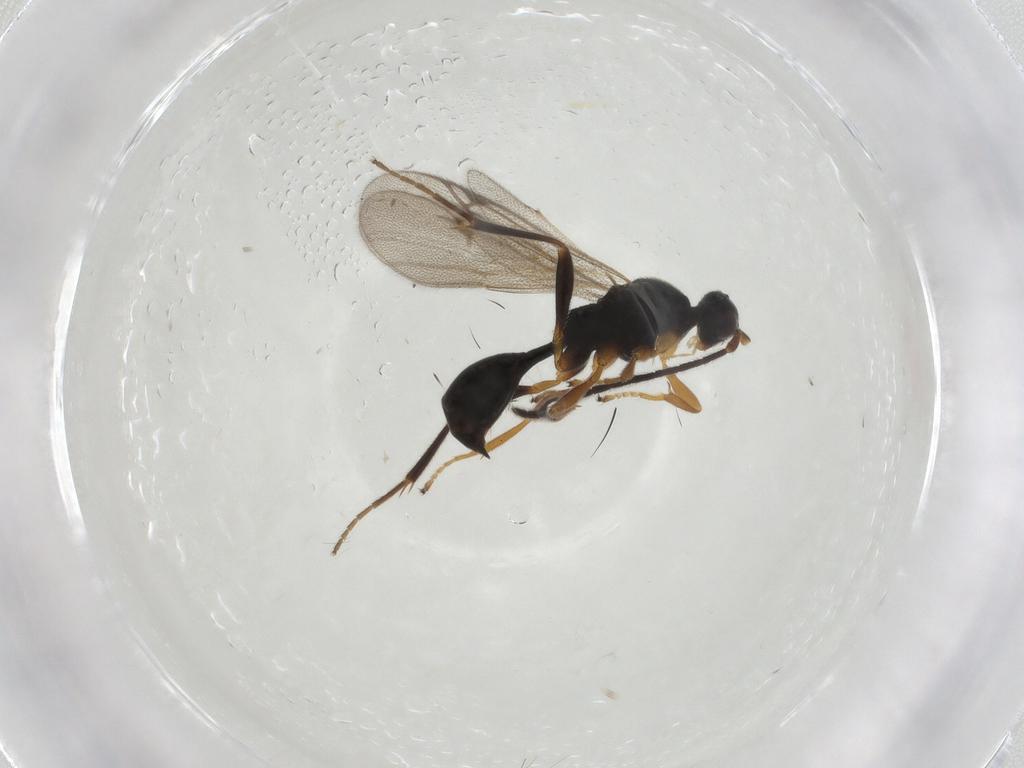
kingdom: Animalia
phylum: Arthropoda
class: Insecta
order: Hymenoptera
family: Proctotrupidae
